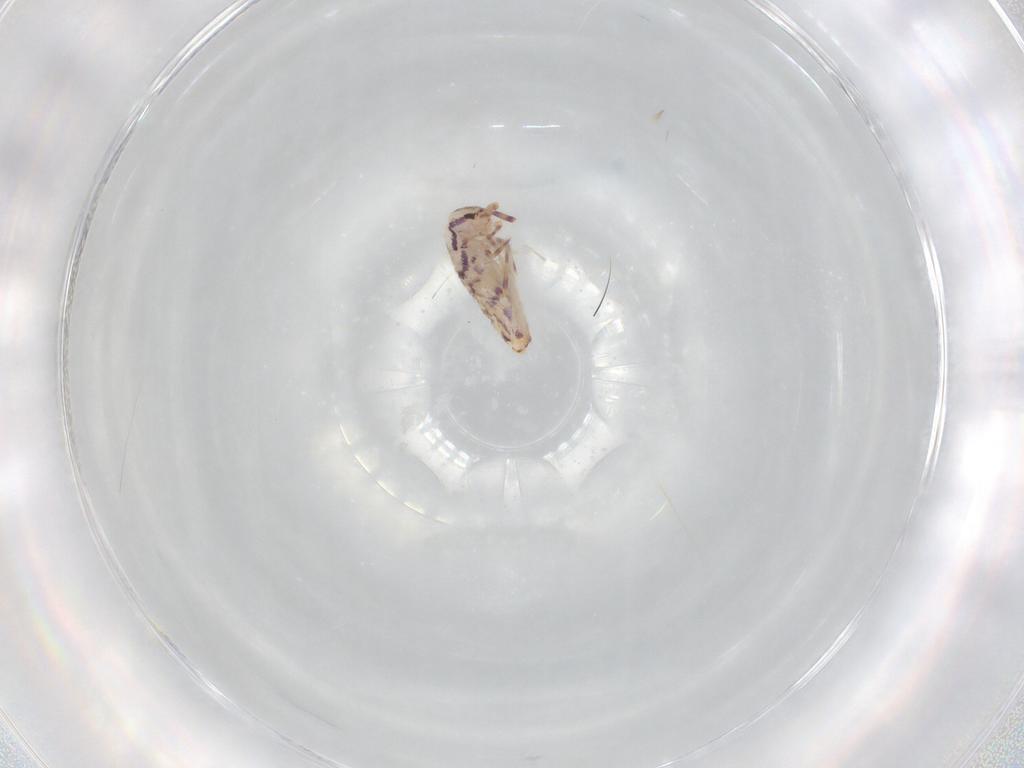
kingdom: Animalia
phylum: Arthropoda
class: Collembola
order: Entomobryomorpha
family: Entomobryidae
